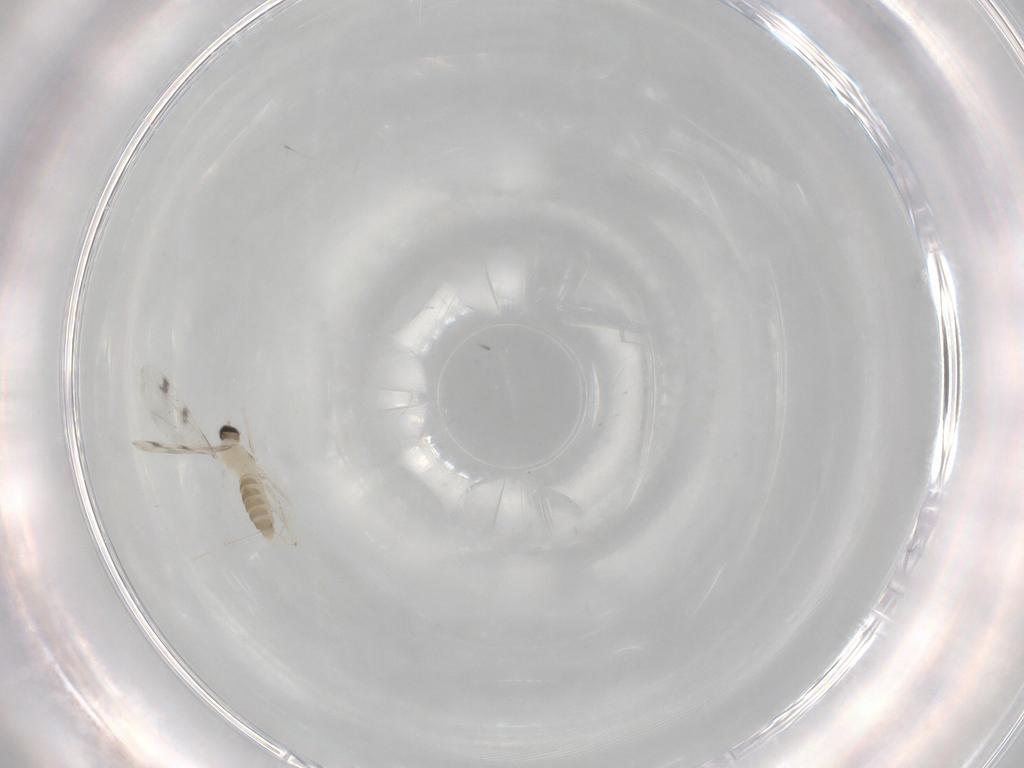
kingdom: Animalia
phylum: Arthropoda
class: Insecta
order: Diptera
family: Cecidomyiidae
